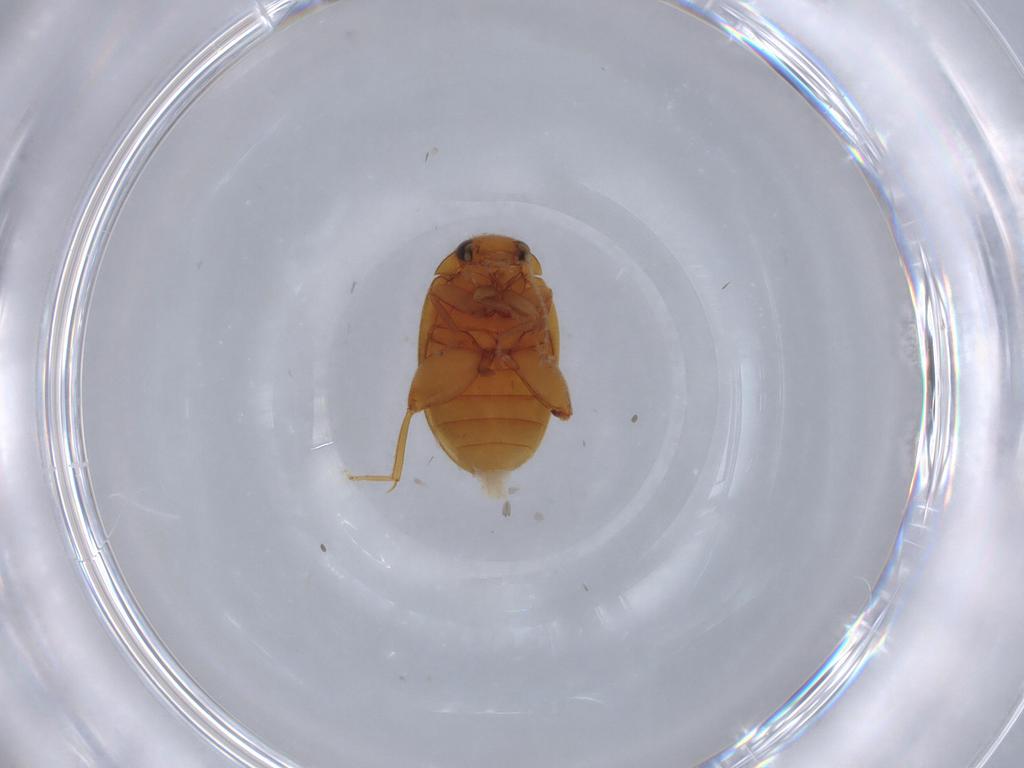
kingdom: Animalia
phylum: Arthropoda
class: Insecta
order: Coleoptera
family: Scirtidae
